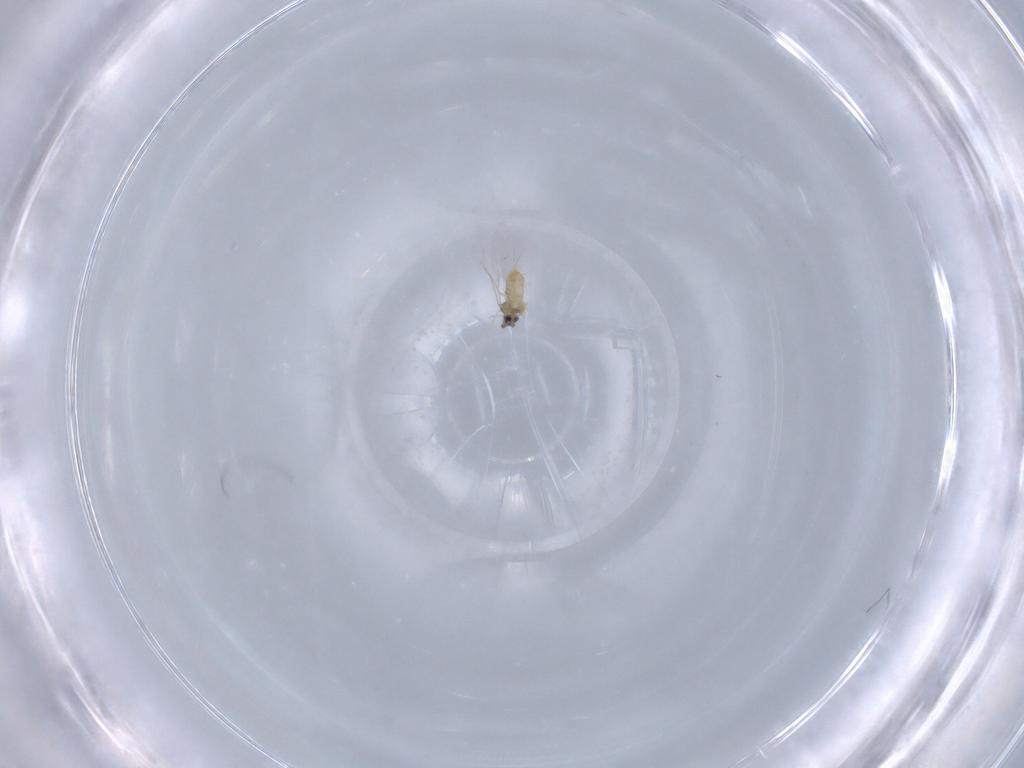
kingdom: Animalia
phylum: Arthropoda
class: Insecta
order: Diptera
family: Cecidomyiidae
